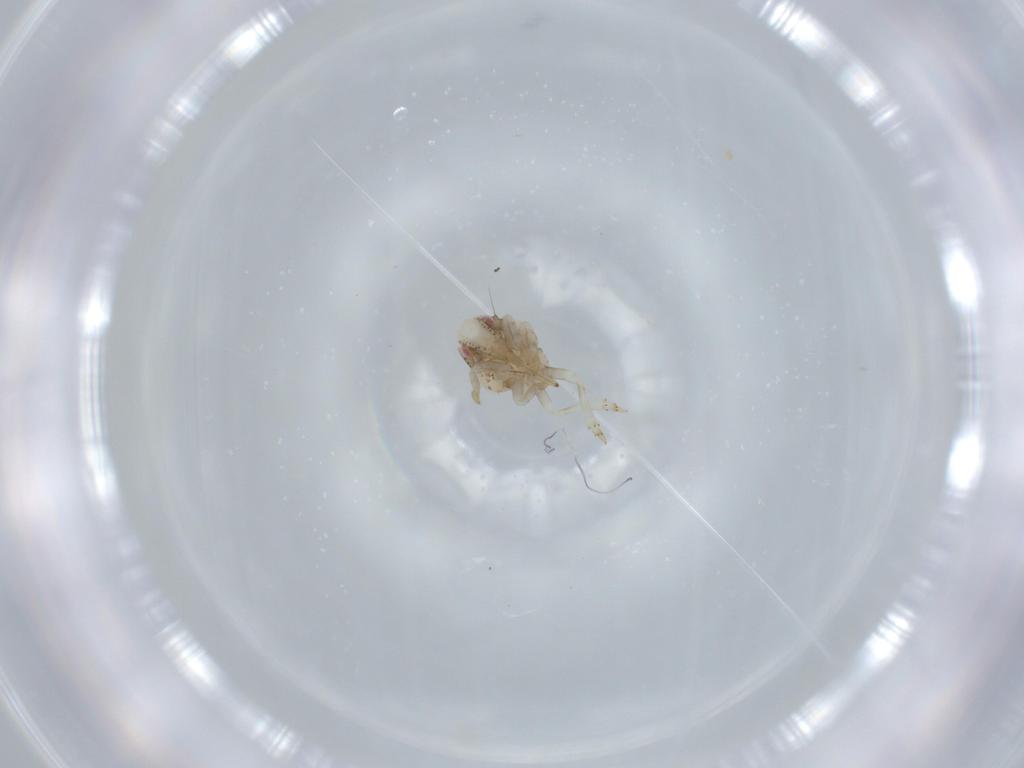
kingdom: Animalia
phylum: Arthropoda
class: Insecta
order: Hemiptera
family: Acanaloniidae
